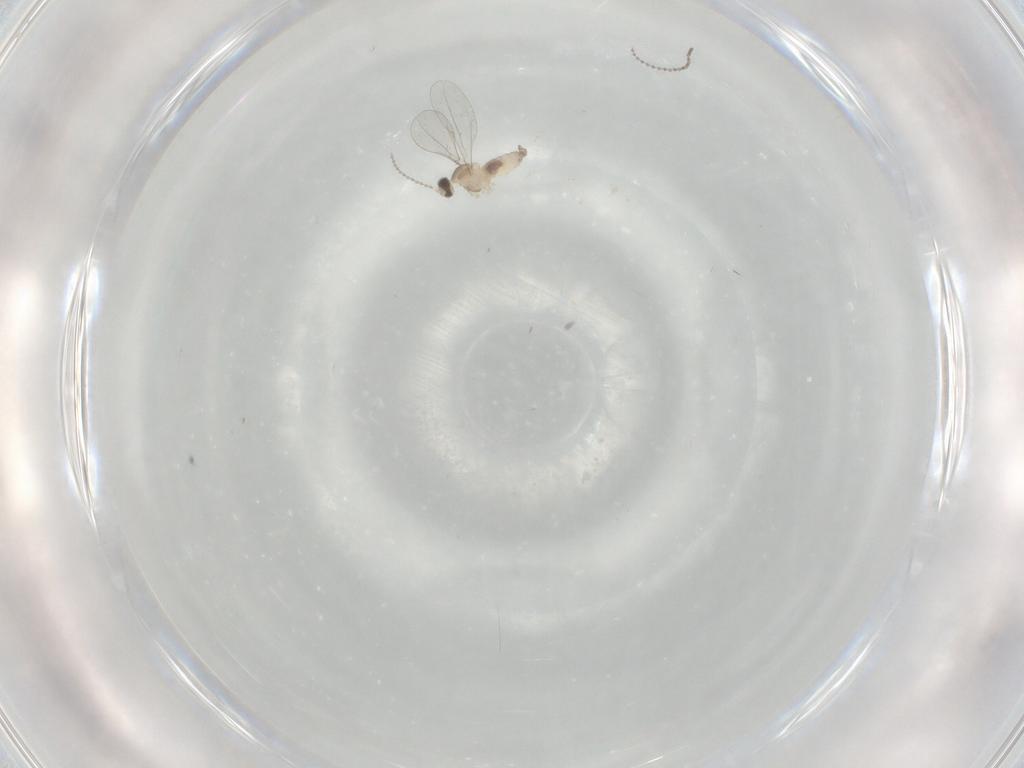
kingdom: Animalia
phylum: Arthropoda
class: Insecta
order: Diptera
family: Cecidomyiidae
